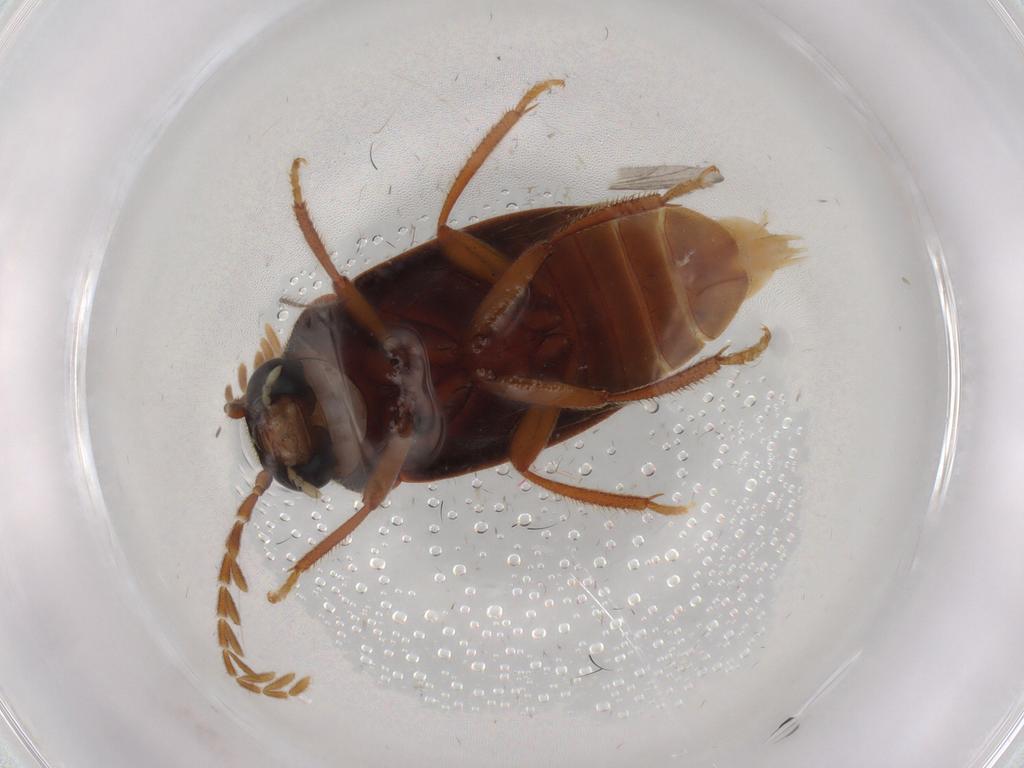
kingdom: Animalia
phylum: Arthropoda
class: Insecta
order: Coleoptera
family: Ptilodactylidae
